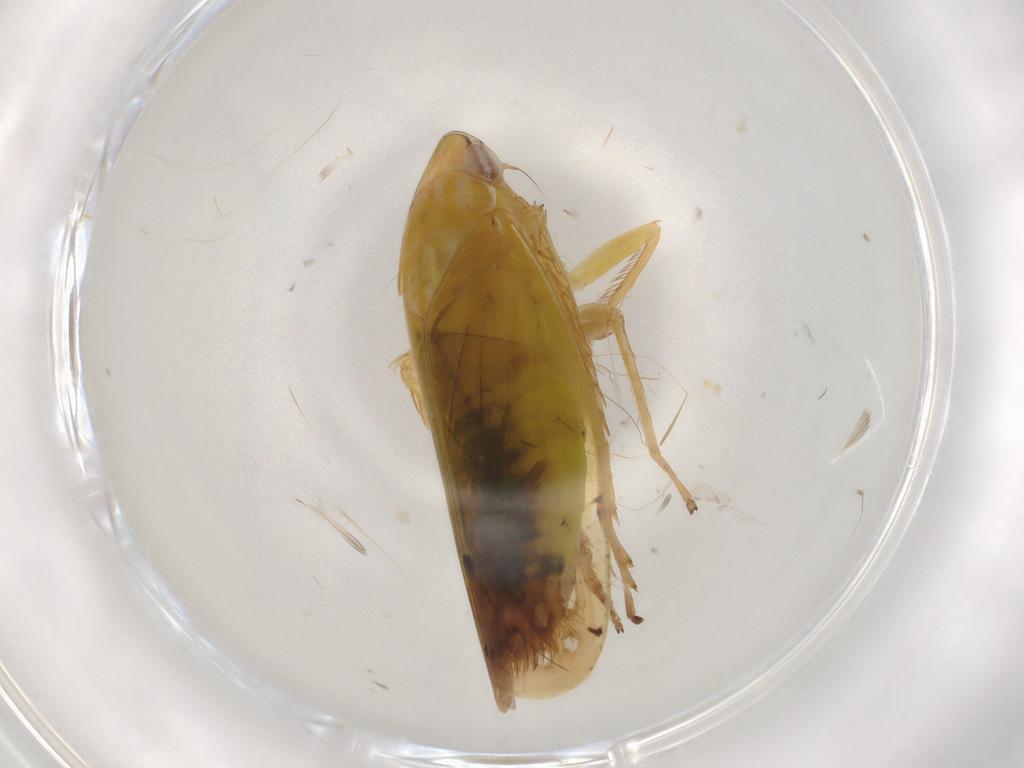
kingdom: Animalia
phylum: Arthropoda
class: Insecta
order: Hemiptera
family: Cicadellidae
